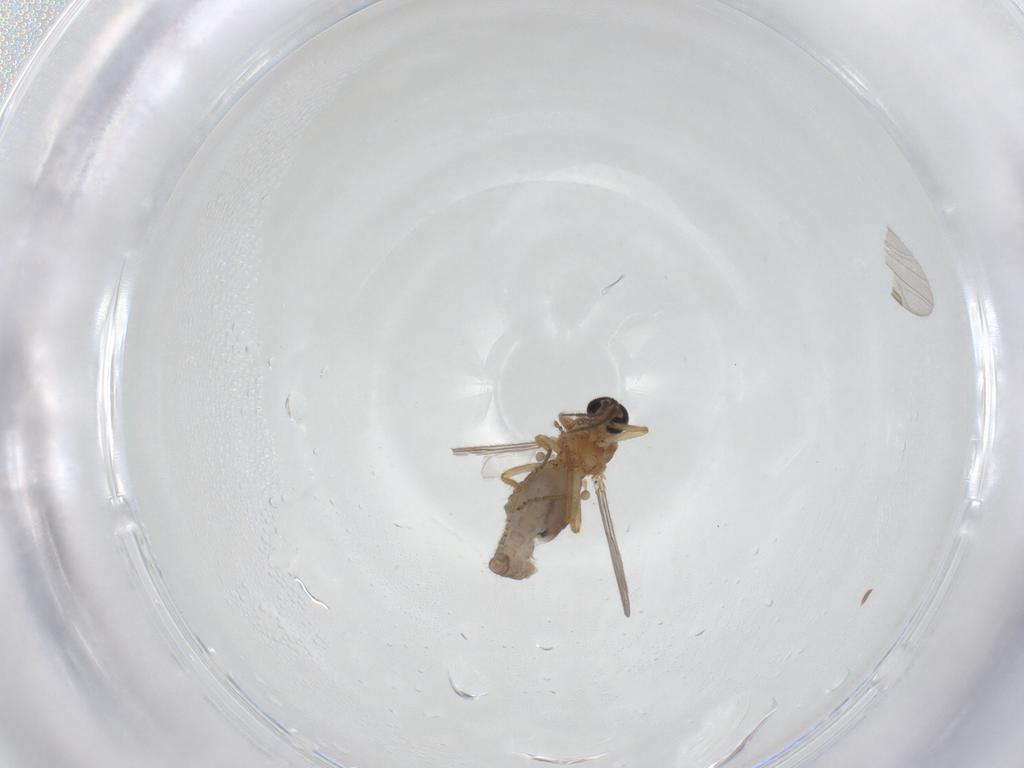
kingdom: Animalia
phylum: Arthropoda
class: Insecta
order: Diptera
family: Ceratopogonidae
